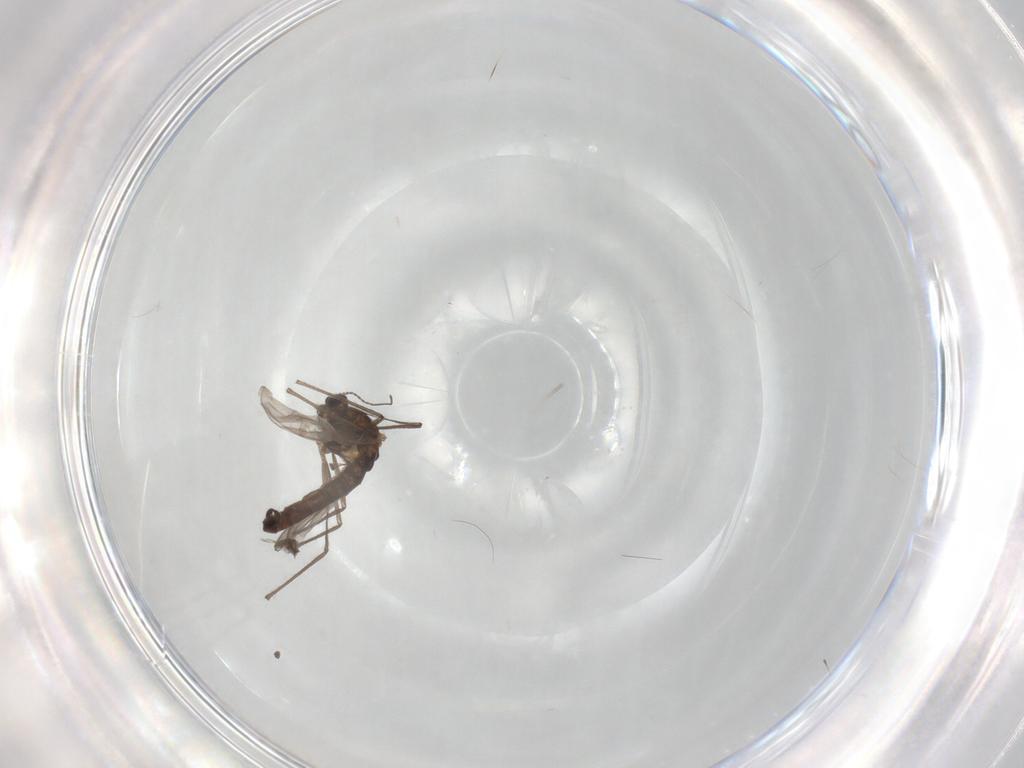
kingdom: Animalia
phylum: Arthropoda
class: Insecta
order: Diptera
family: Chironomidae
